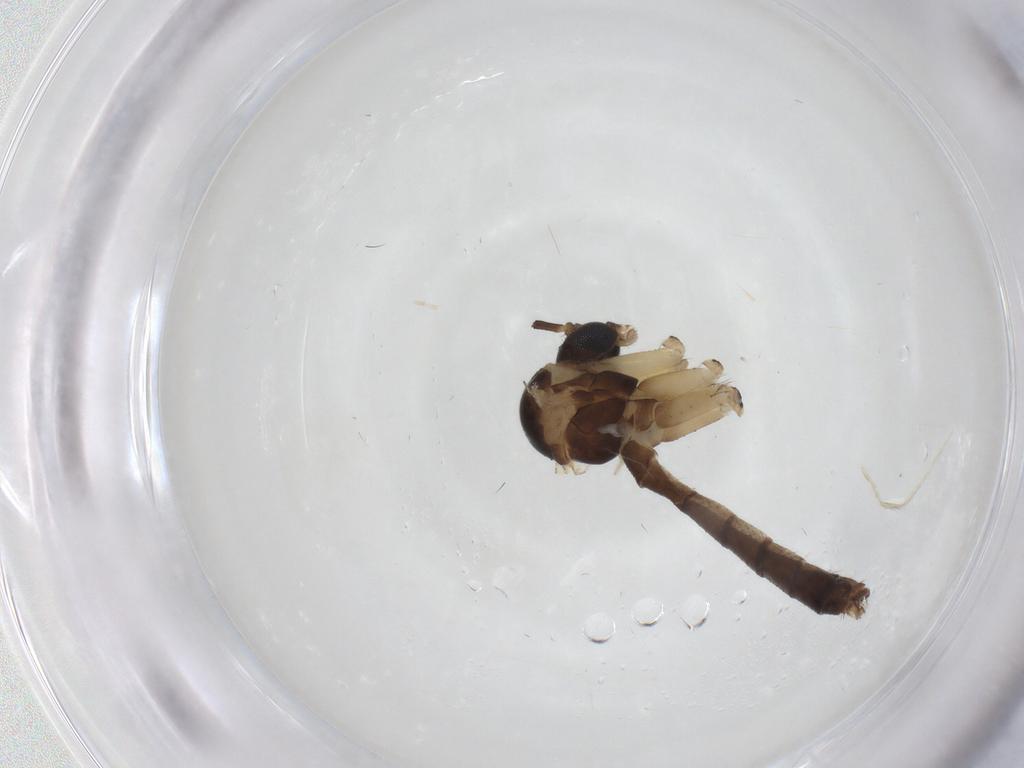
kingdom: Animalia
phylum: Arthropoda
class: Insecta
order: Diptera
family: Mycetophilidae
